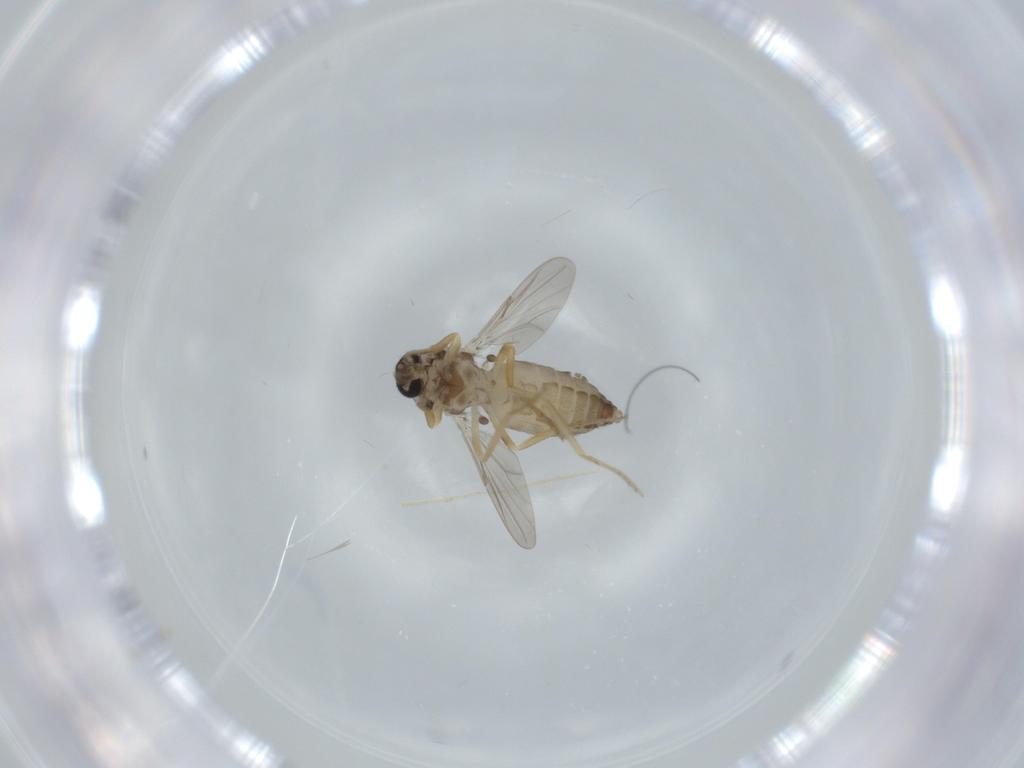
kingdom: Animalia
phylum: Arthropoda
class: Insecta
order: Diptera
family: Ceratopogonidae
